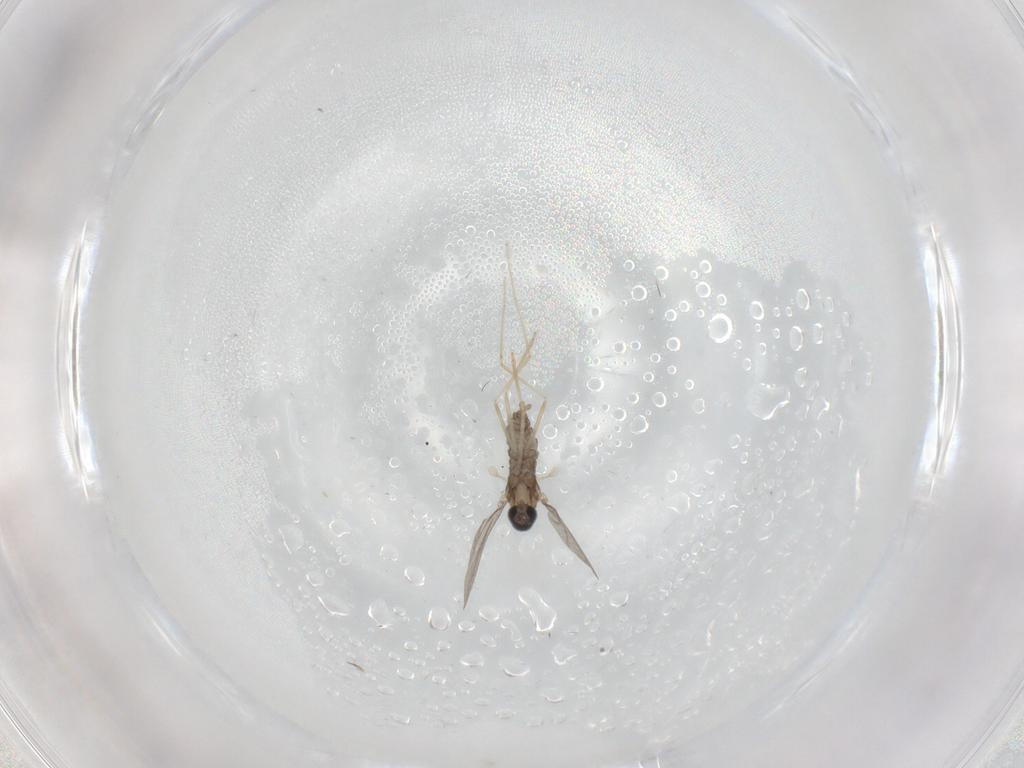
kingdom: Animalia
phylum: Arthropoda
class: Insecta
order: Diptera
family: Cecidomyiidae
